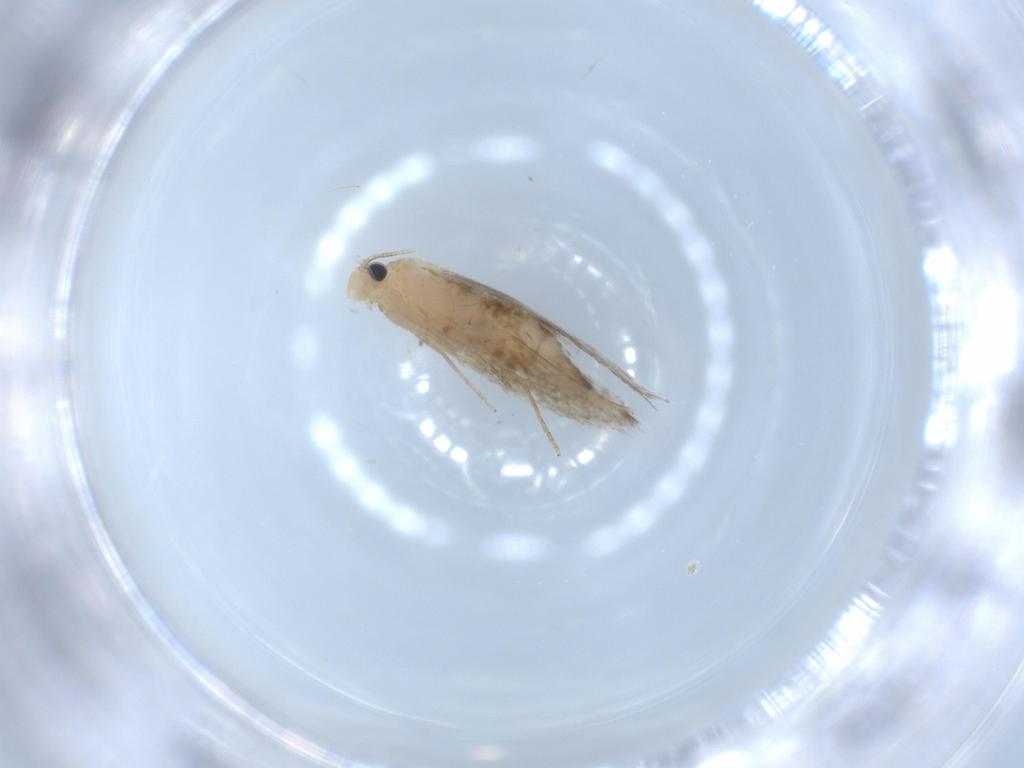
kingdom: Animalia
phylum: Arthropoda
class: Insecta
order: Lepidoptera
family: Tineidae
